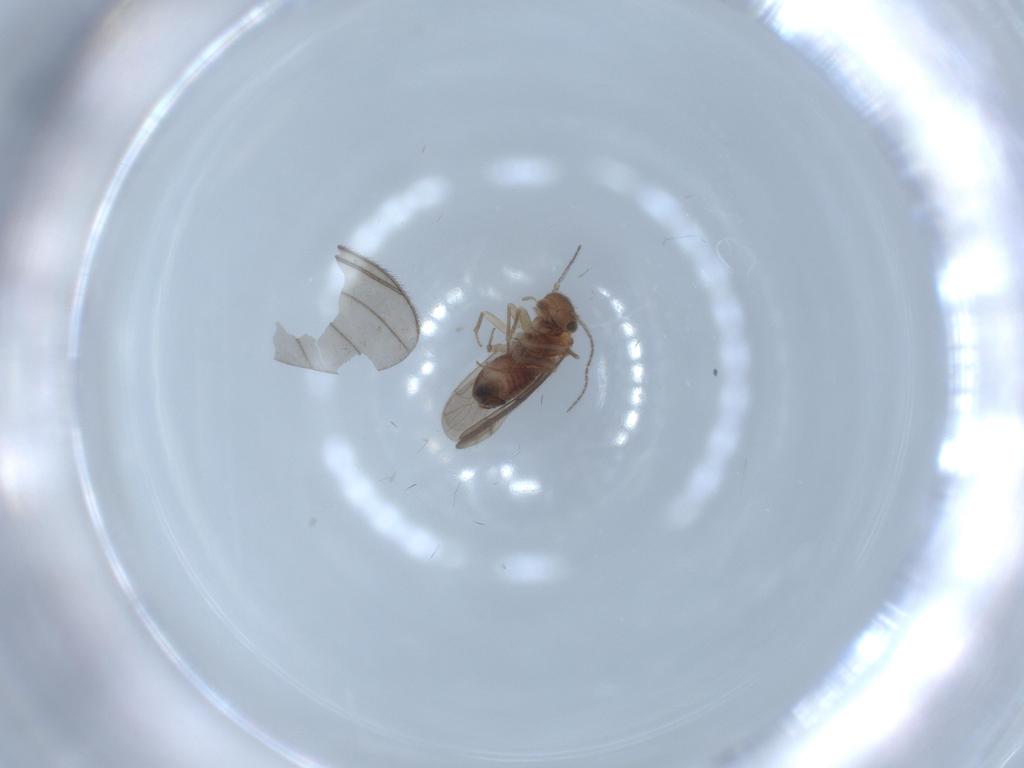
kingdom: Animalia
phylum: Arthropoda
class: Insecta
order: Psocodea
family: Ectopsocidae
